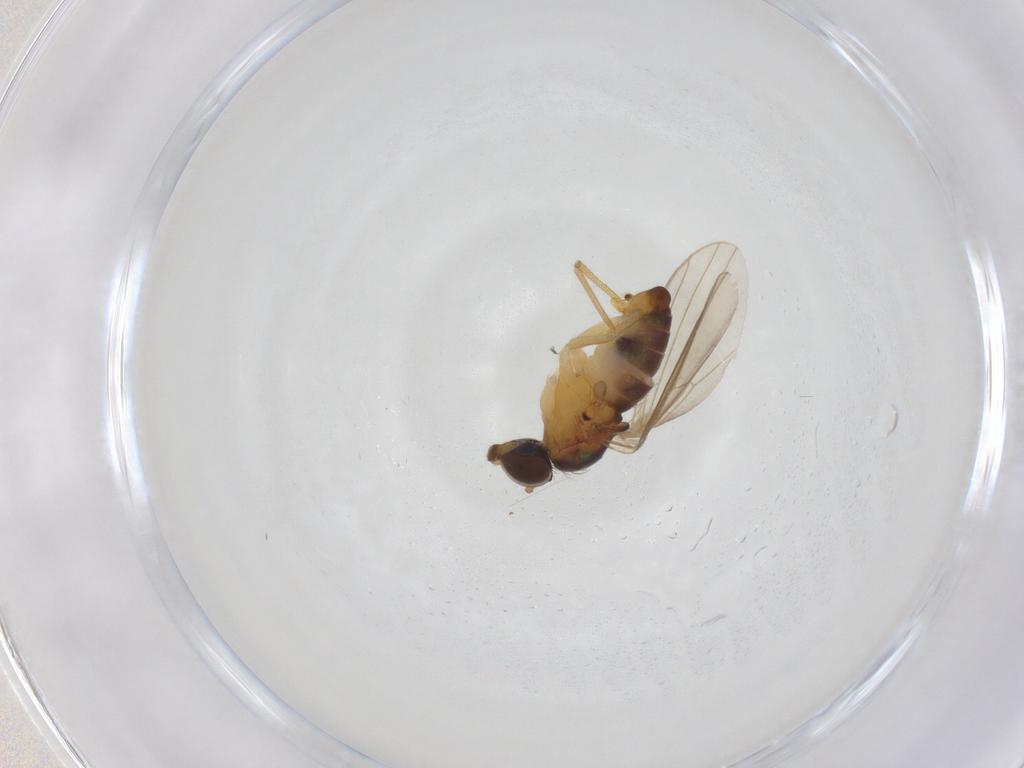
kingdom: Animalia
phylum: Arthropoda
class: Insecta
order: Diptera
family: Dolichopodidae
